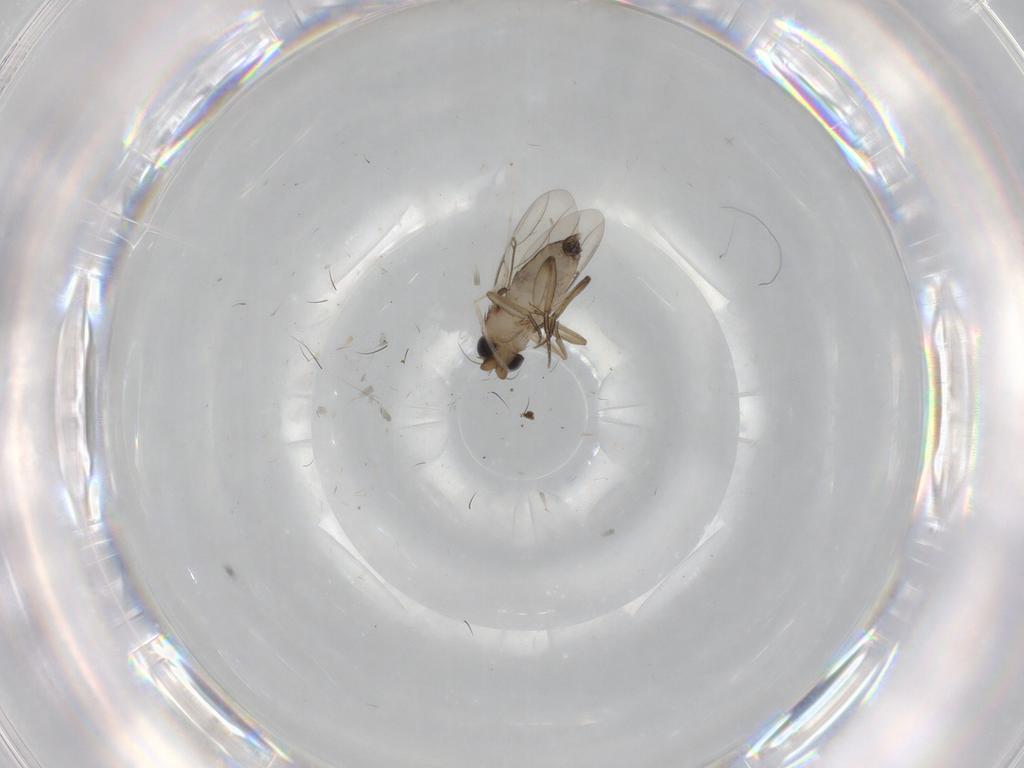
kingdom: Animalia
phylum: Arthropoda
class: Insecta
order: Diptera
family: Phoridae
